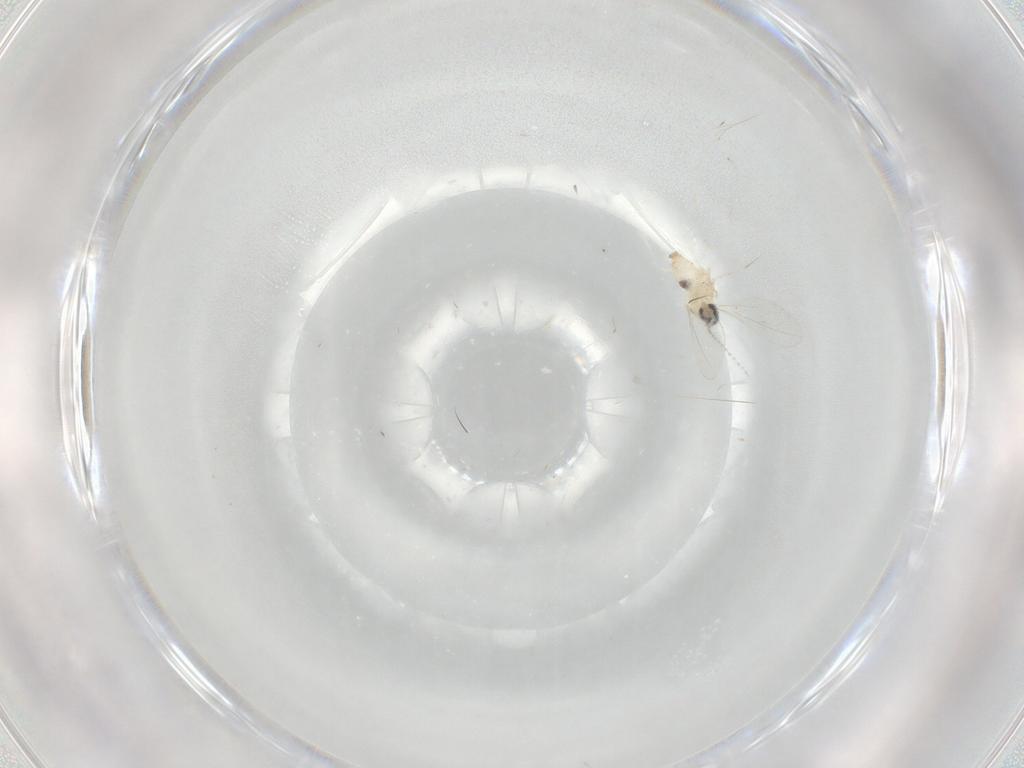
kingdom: Animalia
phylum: Arthropoda
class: Insecta
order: Diptera
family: Cecidomyiidae
